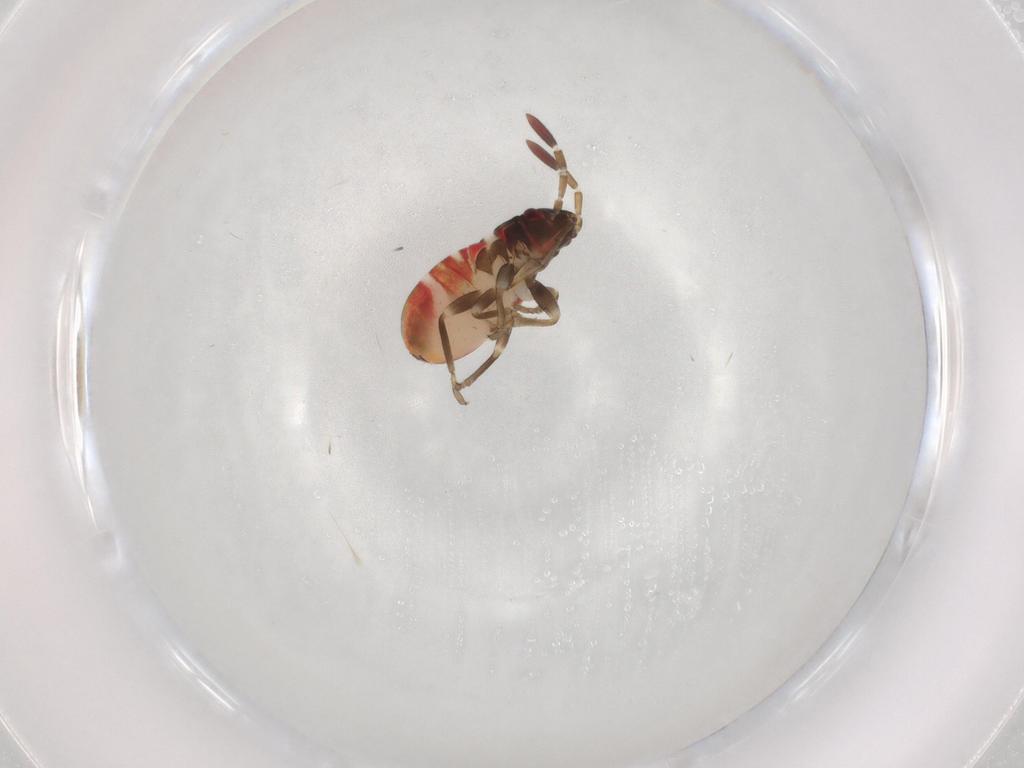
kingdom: Animalia
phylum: Arthropoda
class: Insecta
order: Hemiptera
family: Rhyparochromidae
